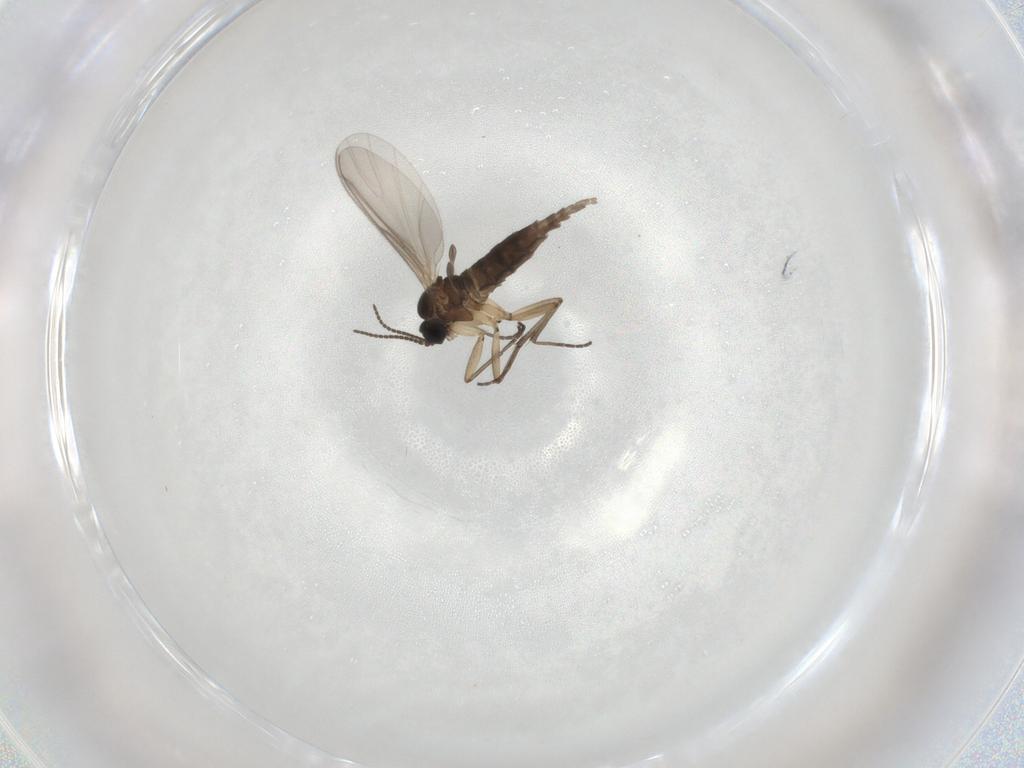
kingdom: Animalia
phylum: Arthropoda
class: Insecta
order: Diptera
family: Sciaridae
